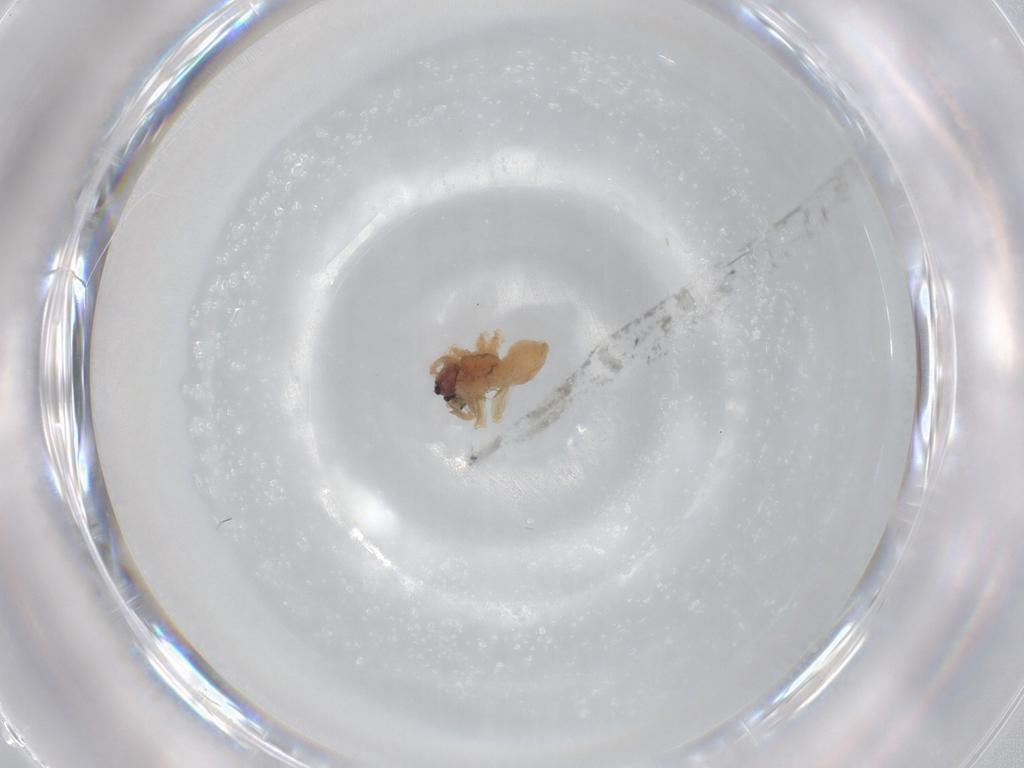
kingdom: Animalia
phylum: Arthropoda
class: Arachnida
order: Araneae
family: Lycosidae
